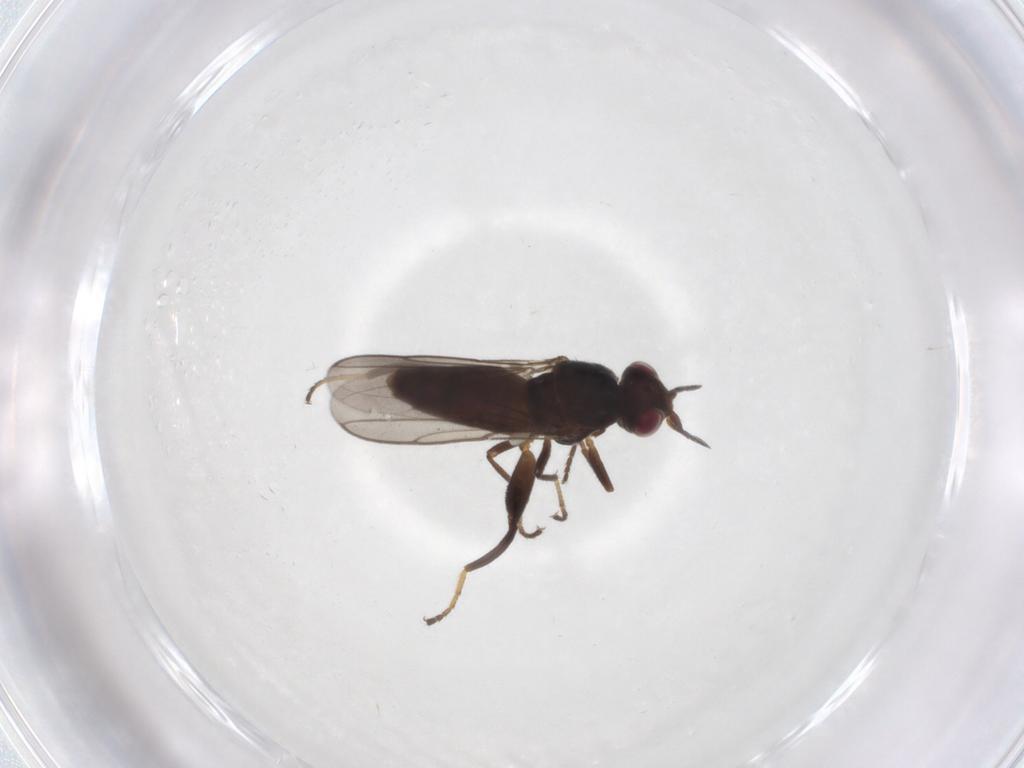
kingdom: Animalia
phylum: Arthropoda
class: Insecta
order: Diptera
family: Chloropidae
